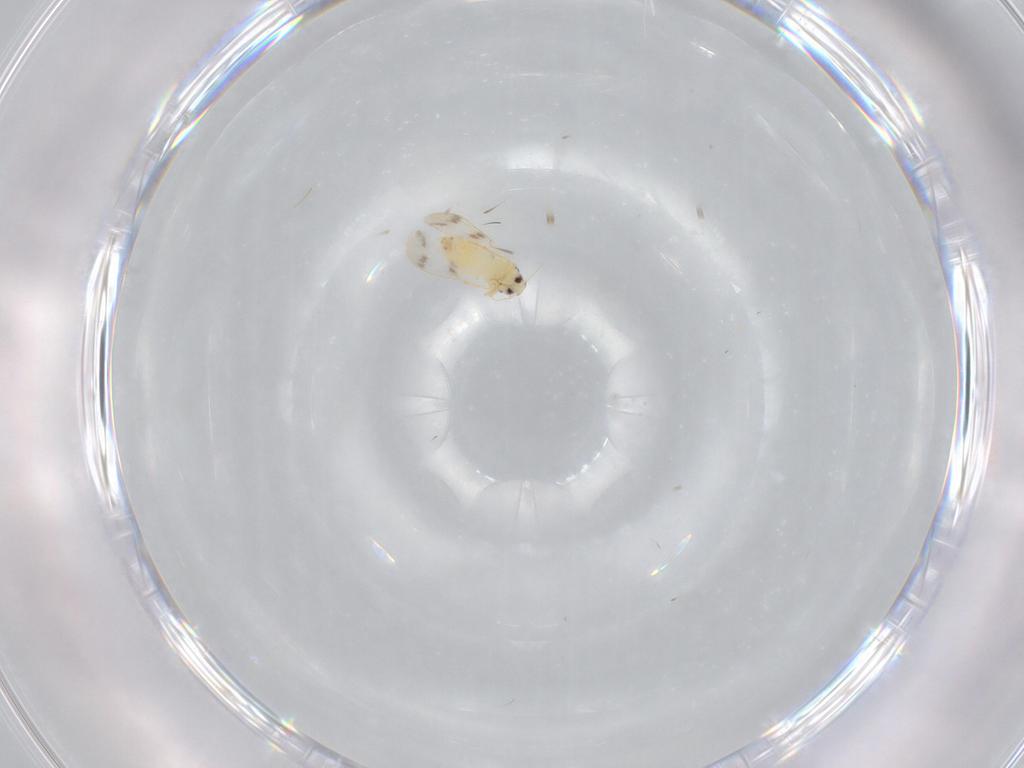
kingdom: Animalia
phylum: Arthropoda
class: Insecta
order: Hemiptera
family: Aleyrodidae
